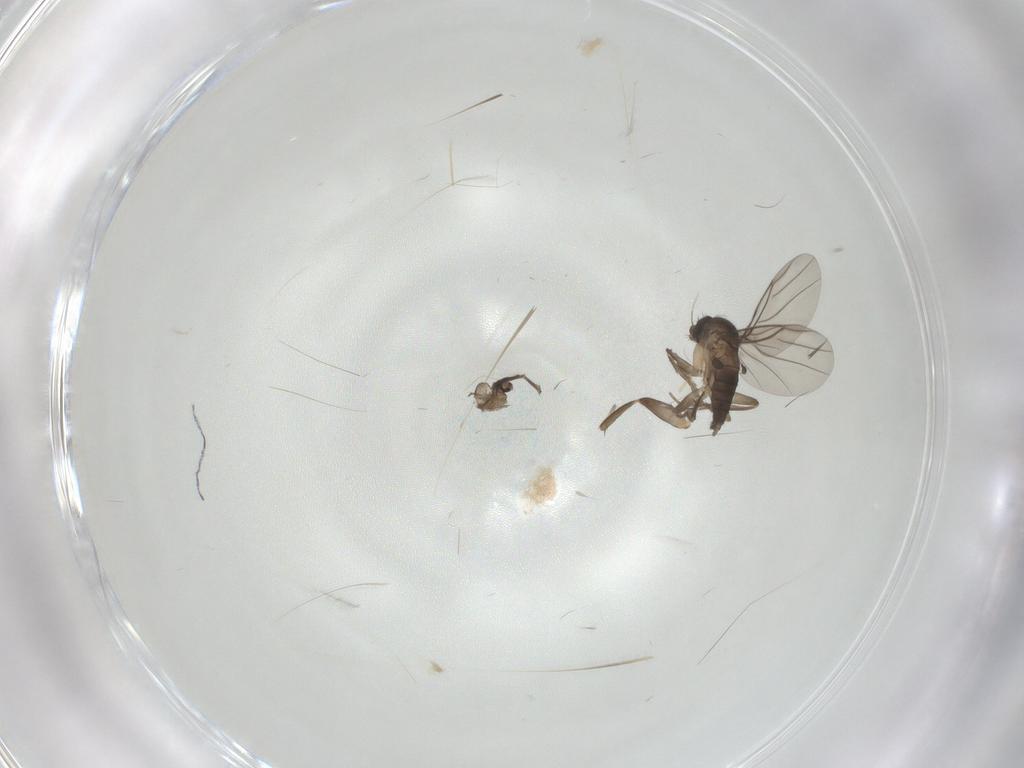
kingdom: Animalia
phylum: Arthropoda
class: Insecta
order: Diptera
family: Cecidomyiidae
